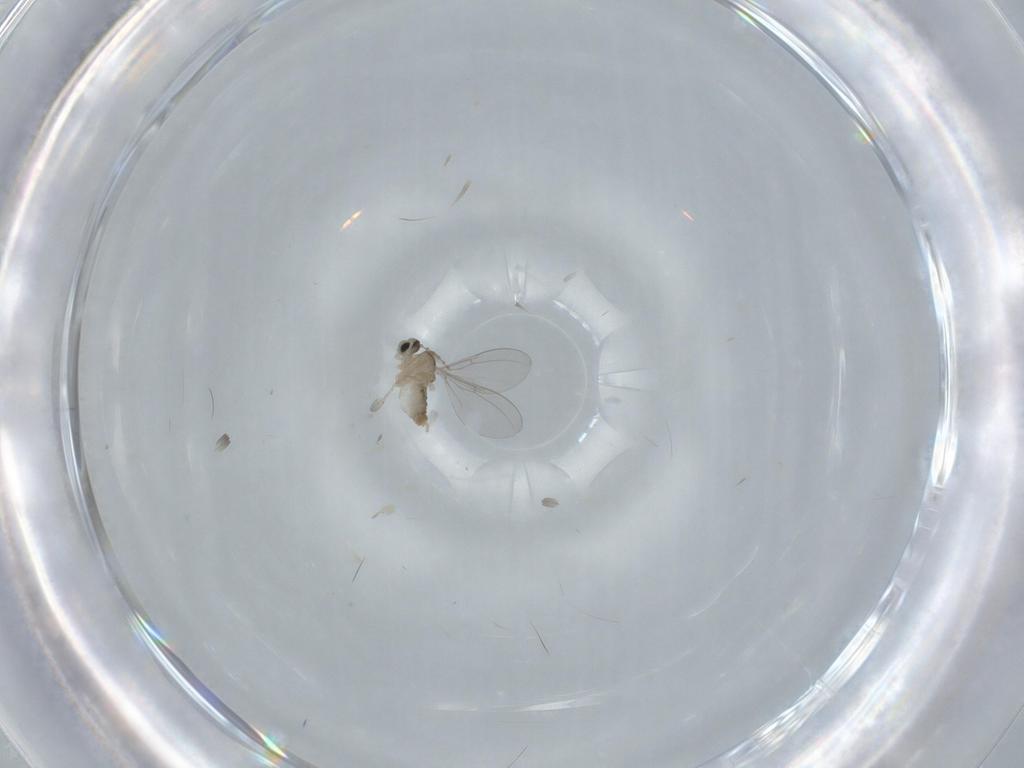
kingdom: Animalia
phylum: Arthropoda
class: Insecta
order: Diptera
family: Cecidomyiidae
